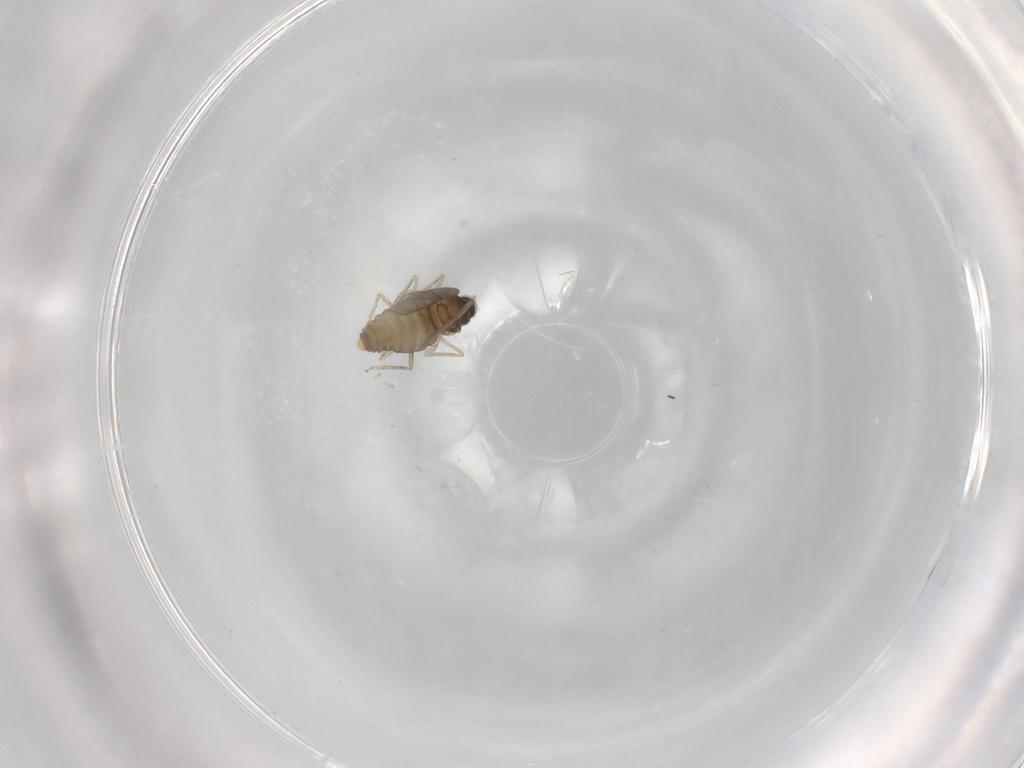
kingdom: Animalia
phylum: Arthropoda
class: Insecta
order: Diptera
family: Cecidomyiidae
